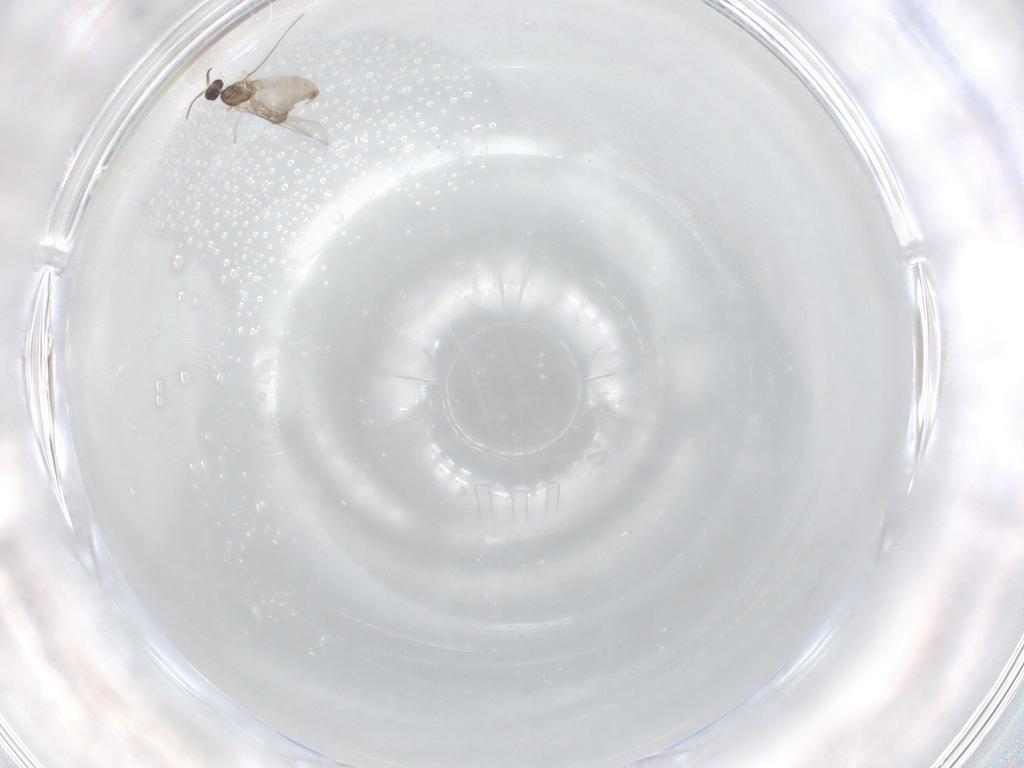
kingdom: Animalia
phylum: Arthropoda
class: Insecta
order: Diptera
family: Cecidomyiidae
